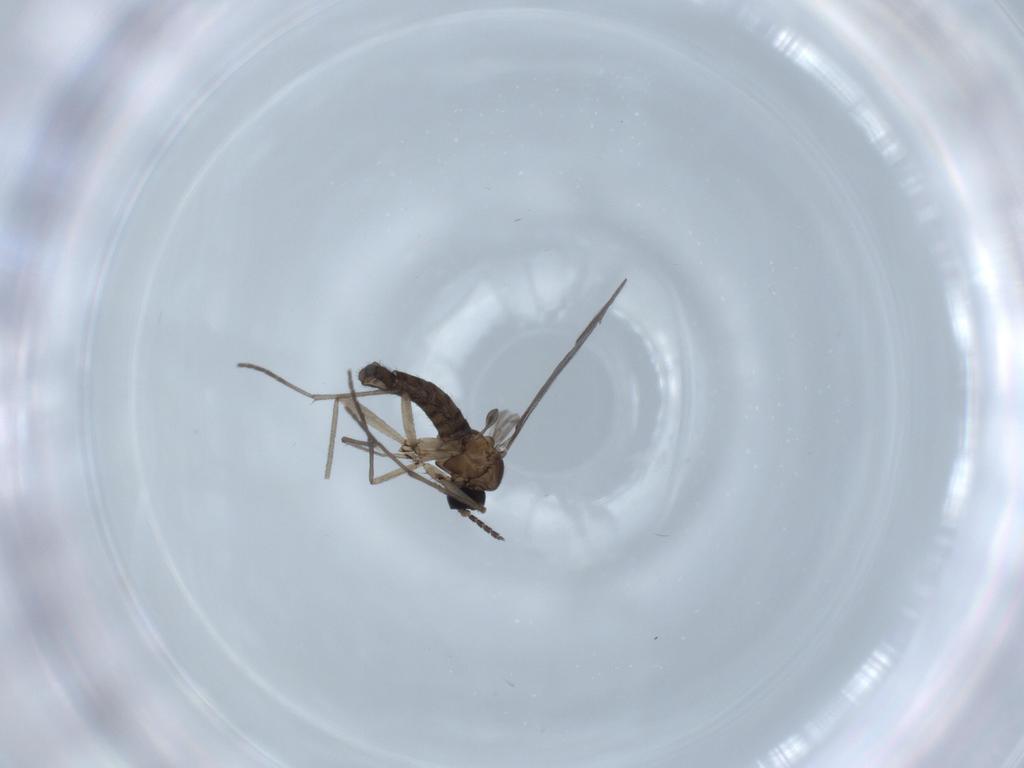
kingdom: Animalia
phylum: Arthropoda
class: Insecta
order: Diptera
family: Sciaridae
